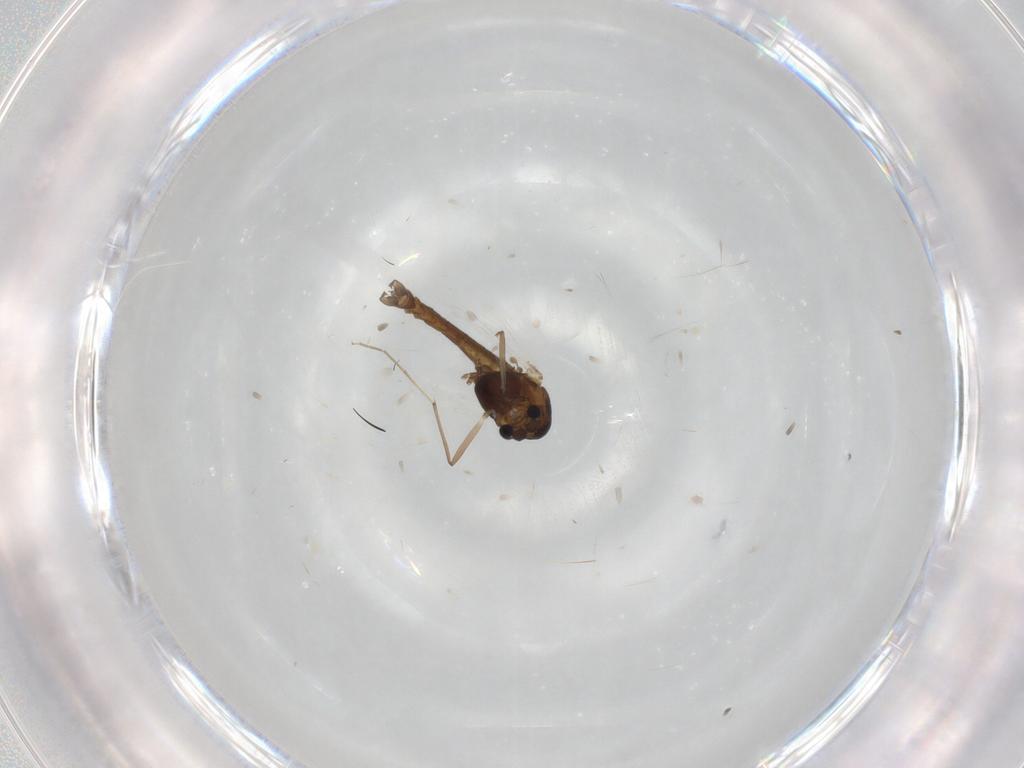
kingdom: Animalia
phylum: Arthropoda
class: Insecta
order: Diptera
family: Chironomidae
